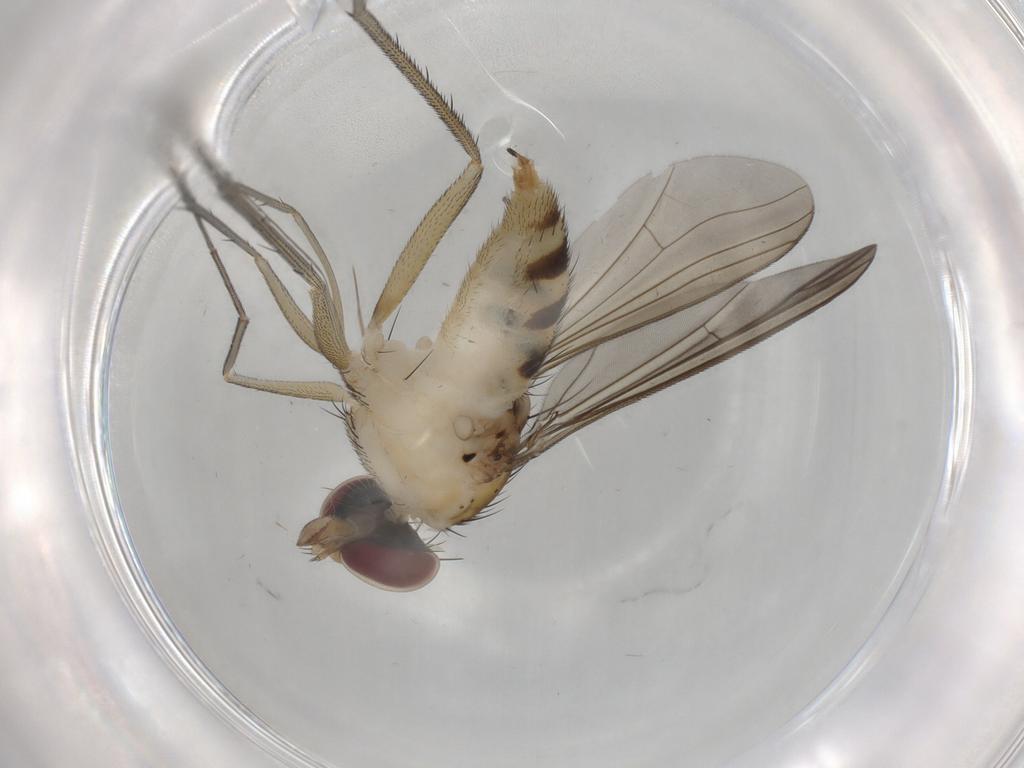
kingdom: Animalia
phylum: Arthropoda
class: Insecta
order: Diptera
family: Dolichopodidae
